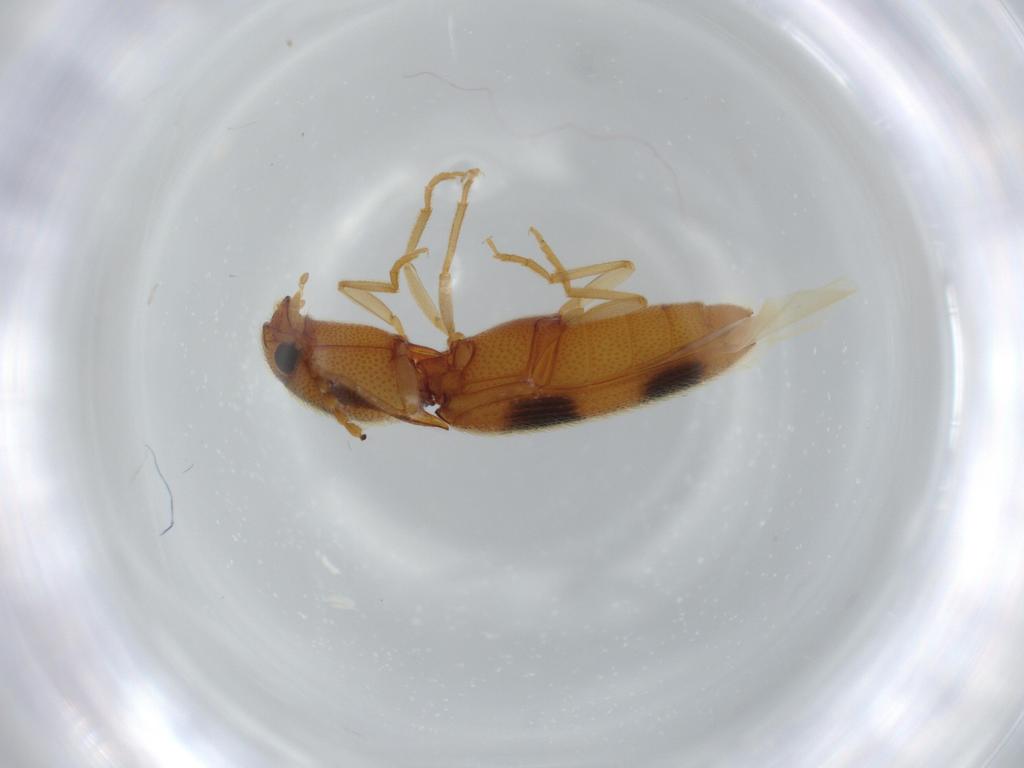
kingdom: Animalia
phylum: Arthropoda
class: Insecta
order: Coleoptera
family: Elateridae
